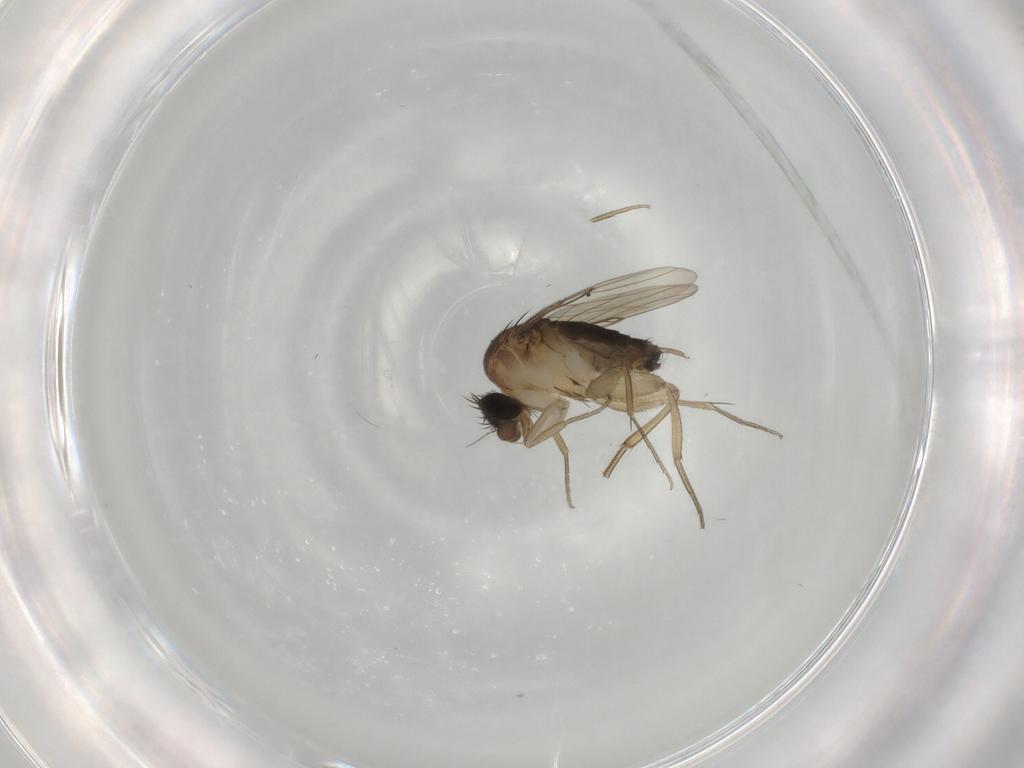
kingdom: Animalia
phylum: Arthropoda
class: Insecta
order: Diptera
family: Phoridae
